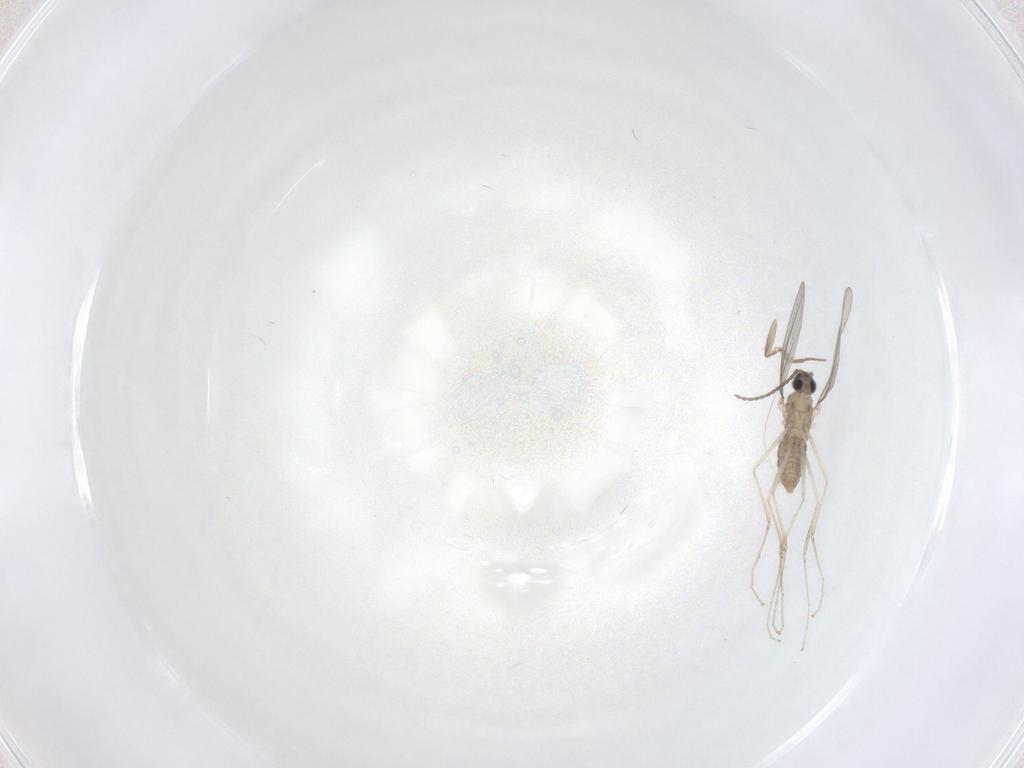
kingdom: Animalia
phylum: Arthropoda
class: Insecta
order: Diptera
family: Cecidomyiidae
